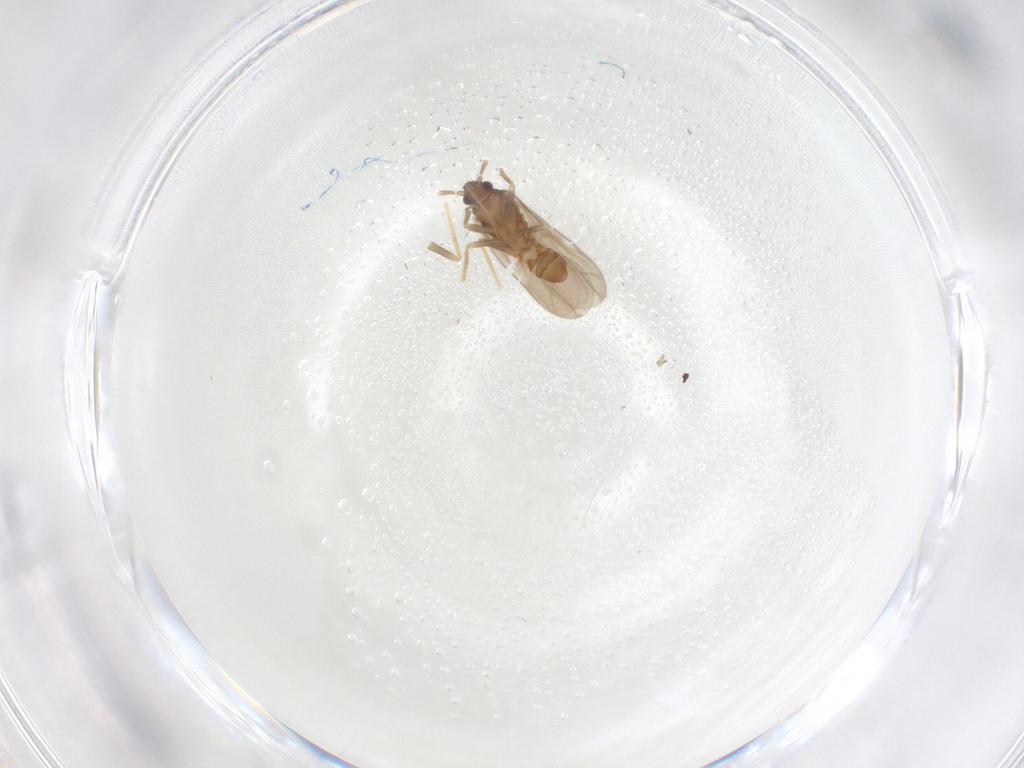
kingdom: Animalia
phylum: Arthropoda
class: Insecta
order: Hemiptera
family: Ceratocombidae
